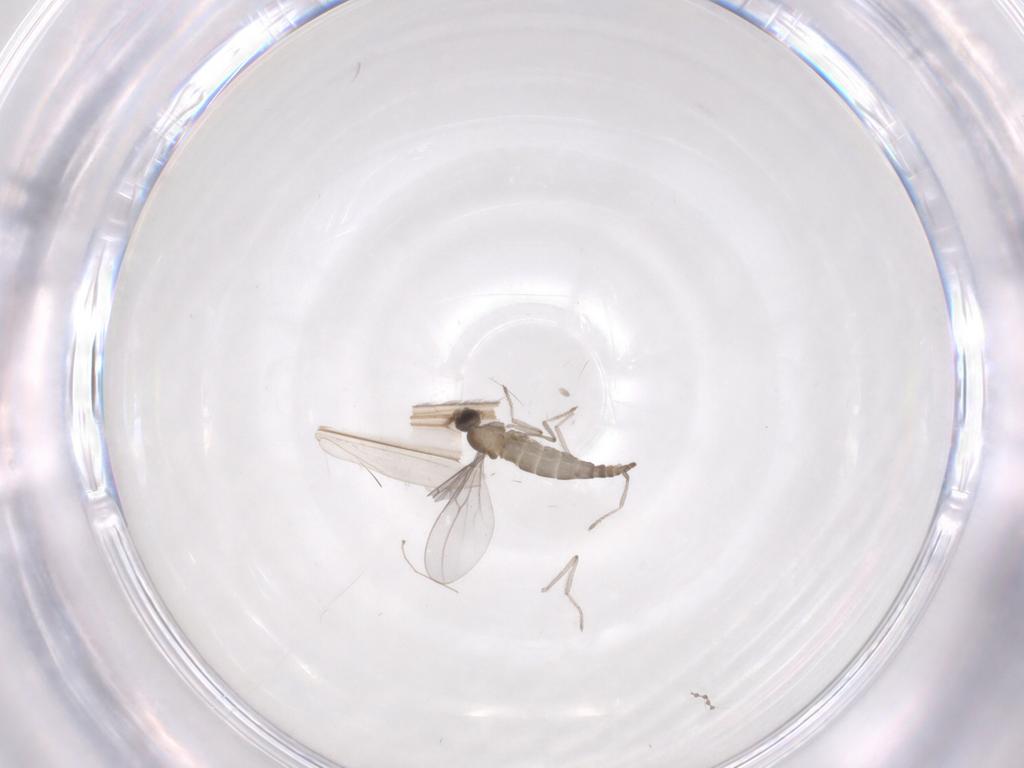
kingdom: Animalia
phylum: Arthropoda
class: Insecta
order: Diptera
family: Cecidomyiidae
